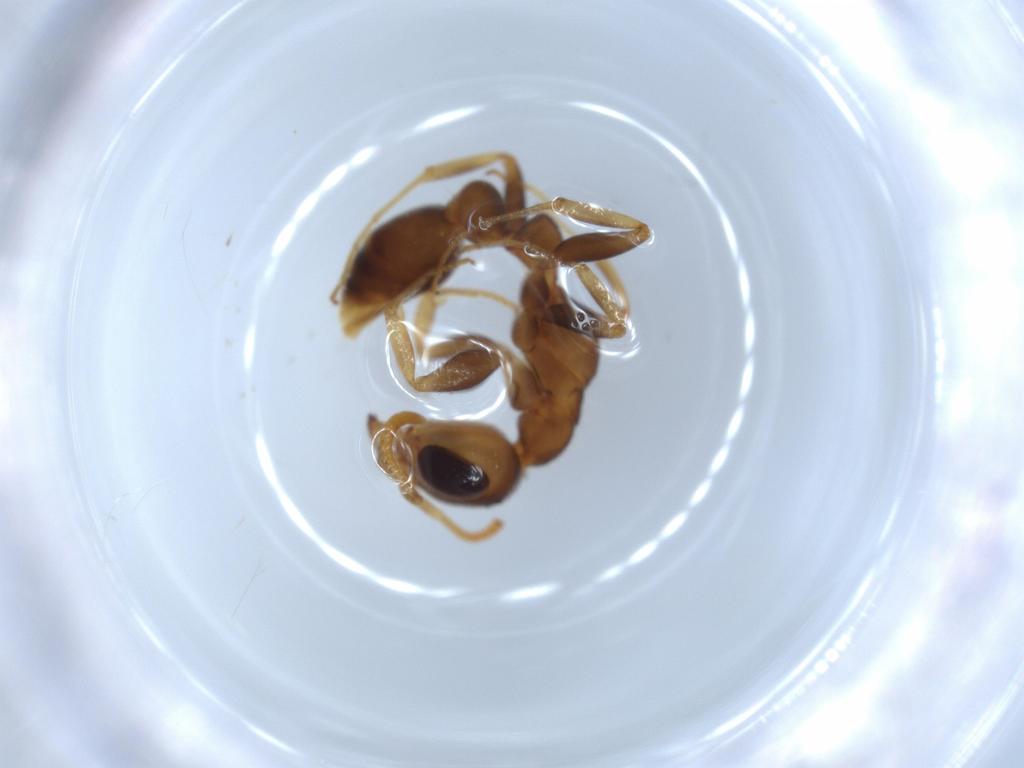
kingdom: Animalia
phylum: Arthropoda
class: Insecta
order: Hymenoptera
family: Formicidae
